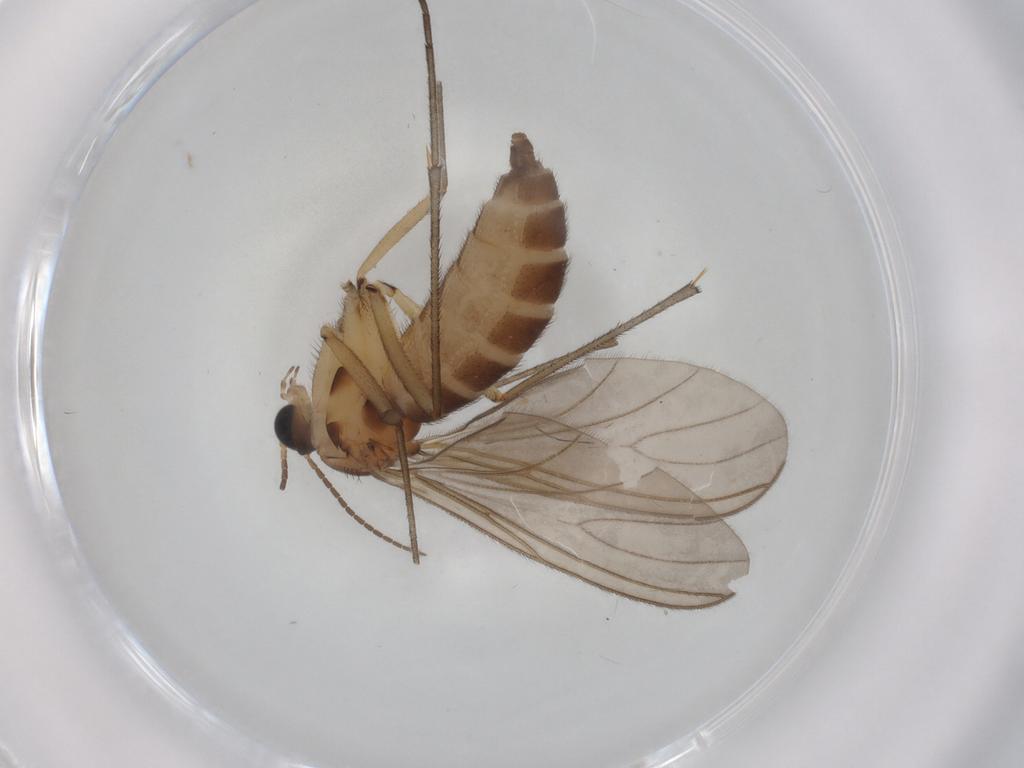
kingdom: Animalia
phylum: Arthropoda
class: Insecta
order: Diptera
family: Sciaridae
